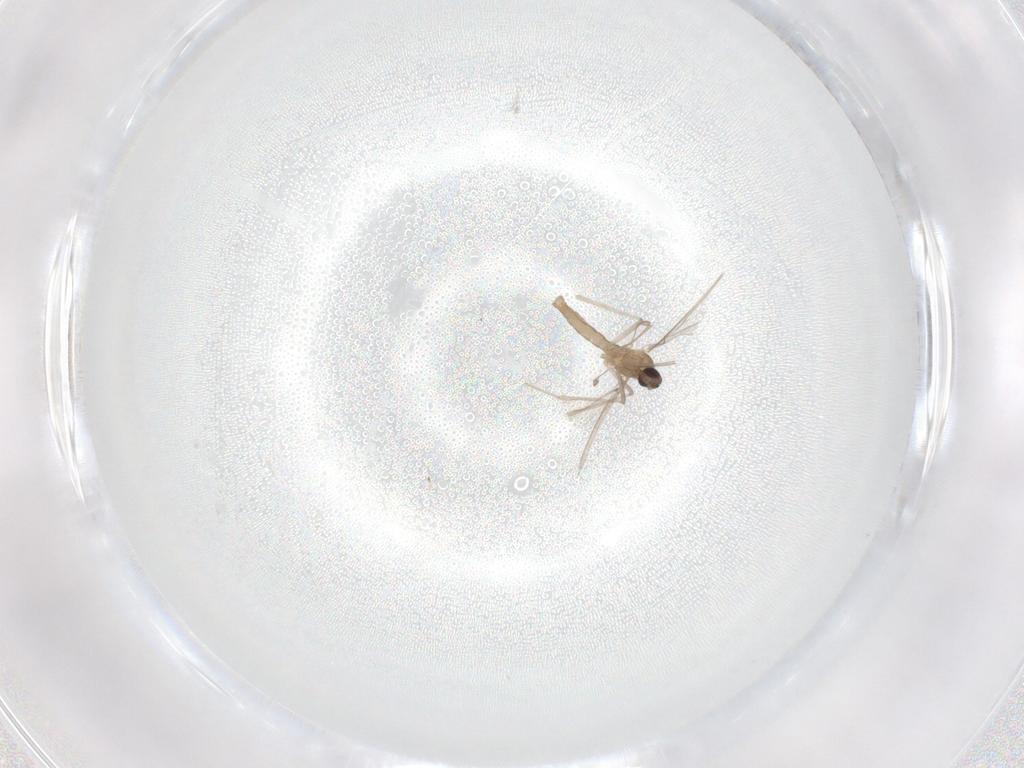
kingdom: Animalia
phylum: Arthropoda
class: Insecta
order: Diptera
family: Cecidomyiidae
